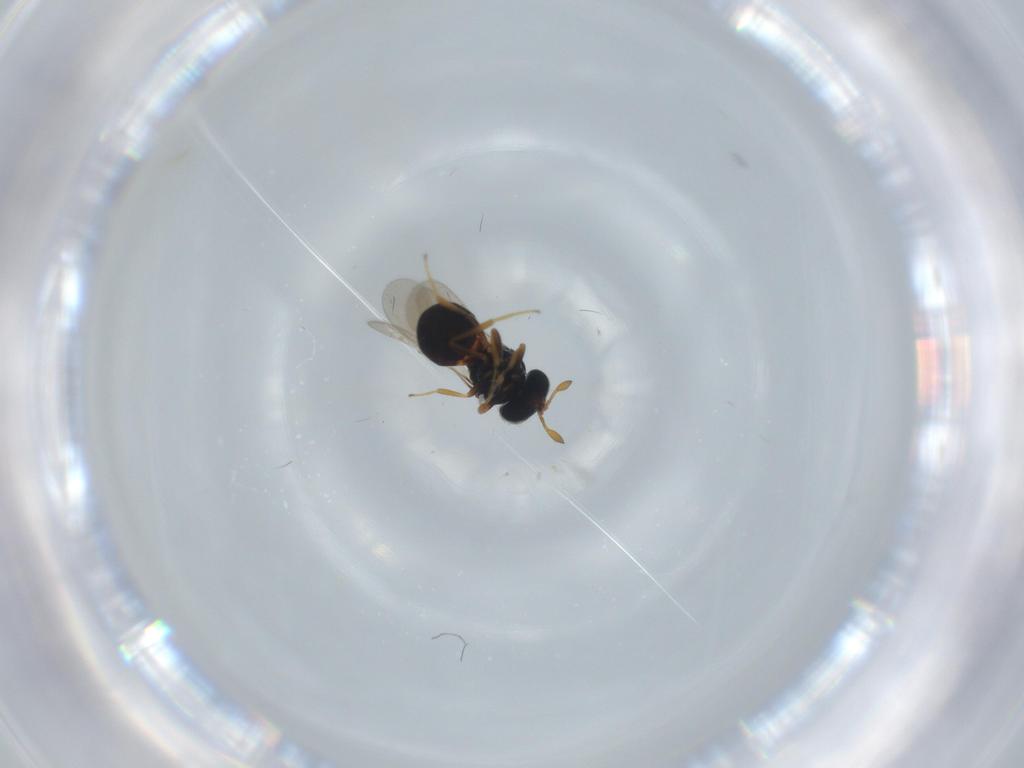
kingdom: Animalia
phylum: Arthropoda
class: Insecta
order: Hymenoptera
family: Scelionidae
